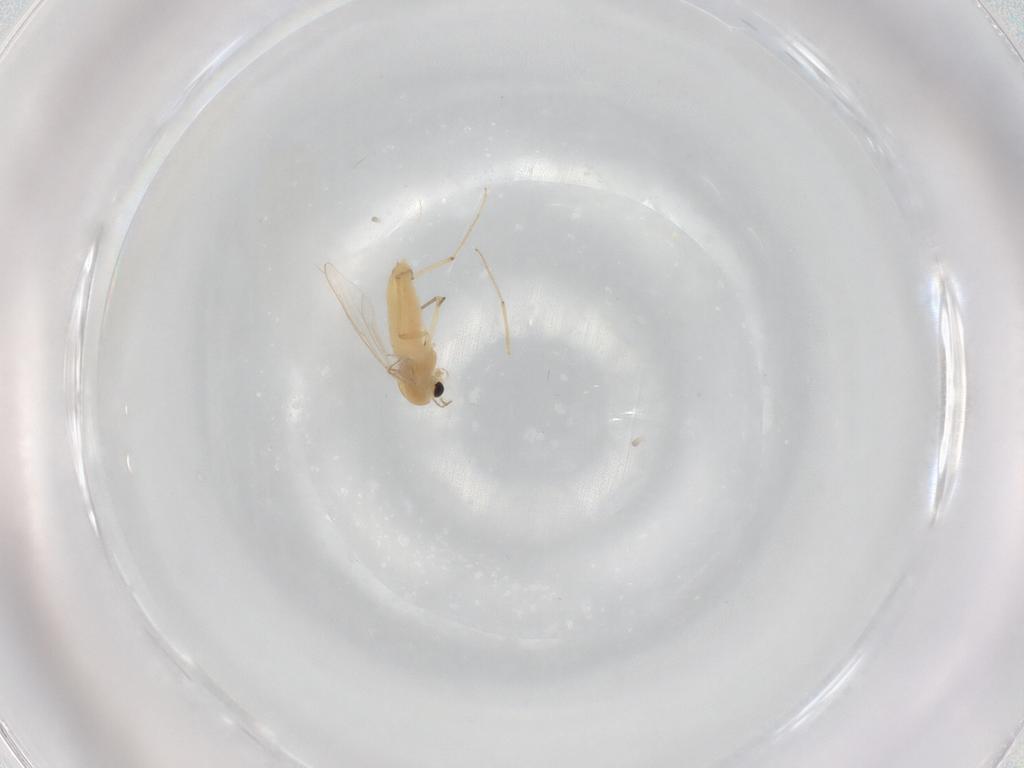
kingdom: Animalia
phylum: Arthropoda
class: Insecta
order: Diptera
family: Chironomidae
